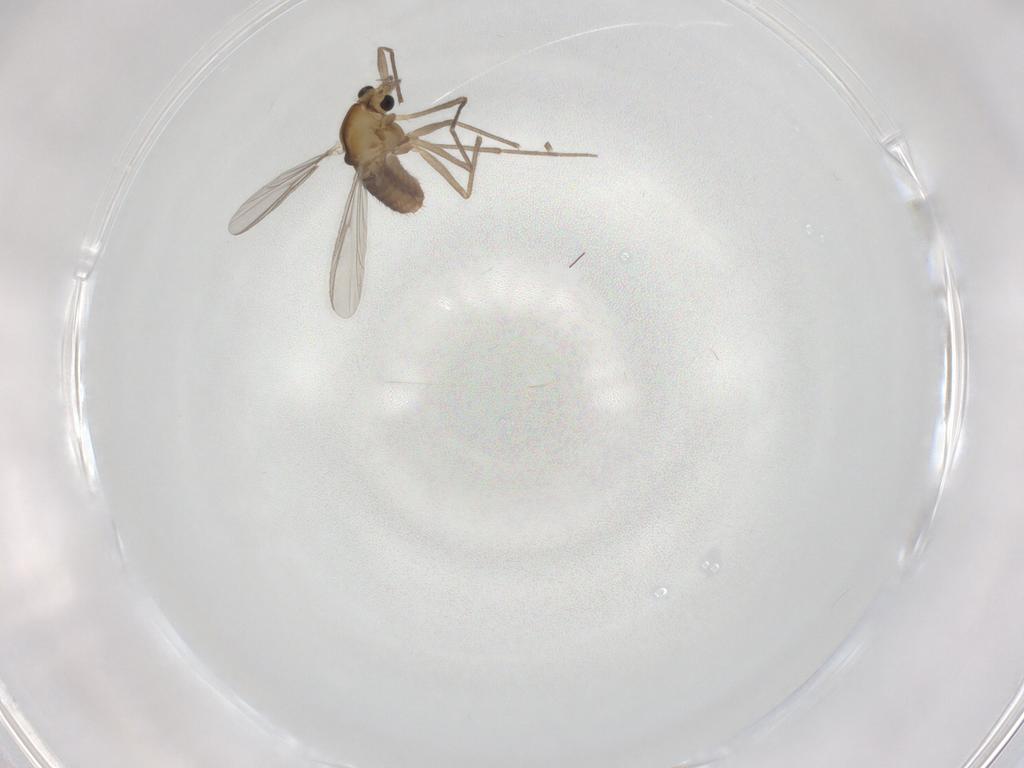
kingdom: Animalia
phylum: Arthropoda
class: Insecta
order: Diptera
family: Chironomidae
